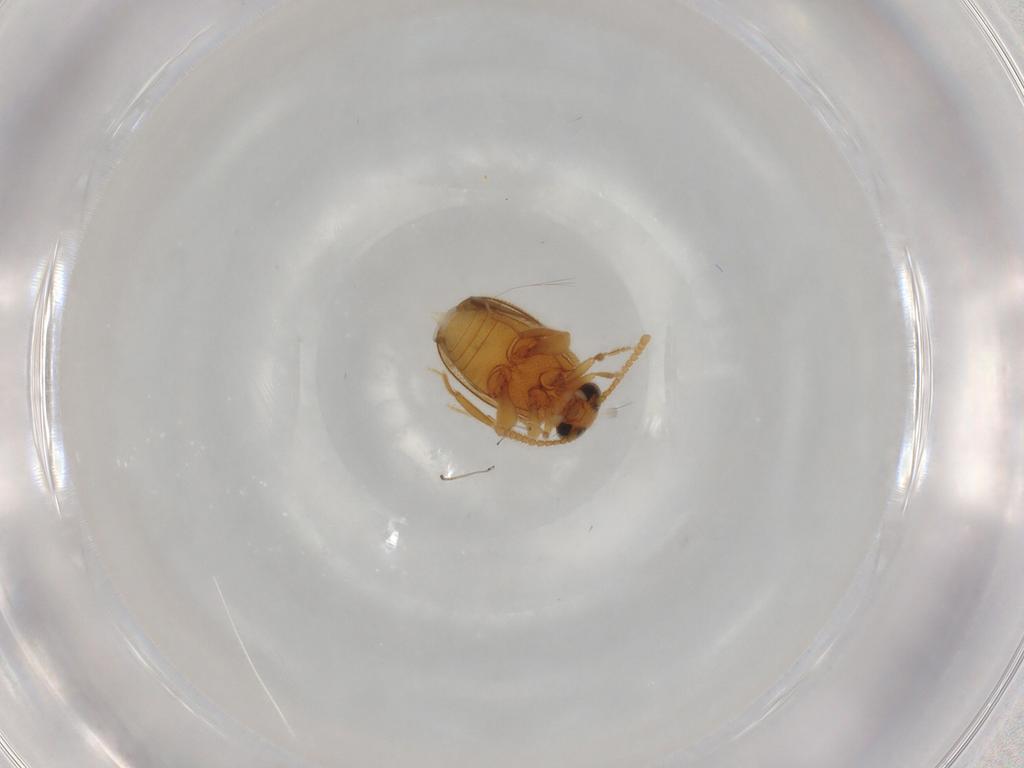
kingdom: Animalia
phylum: Arthropoda
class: Insecta
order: Coleoptera
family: Aderidae
